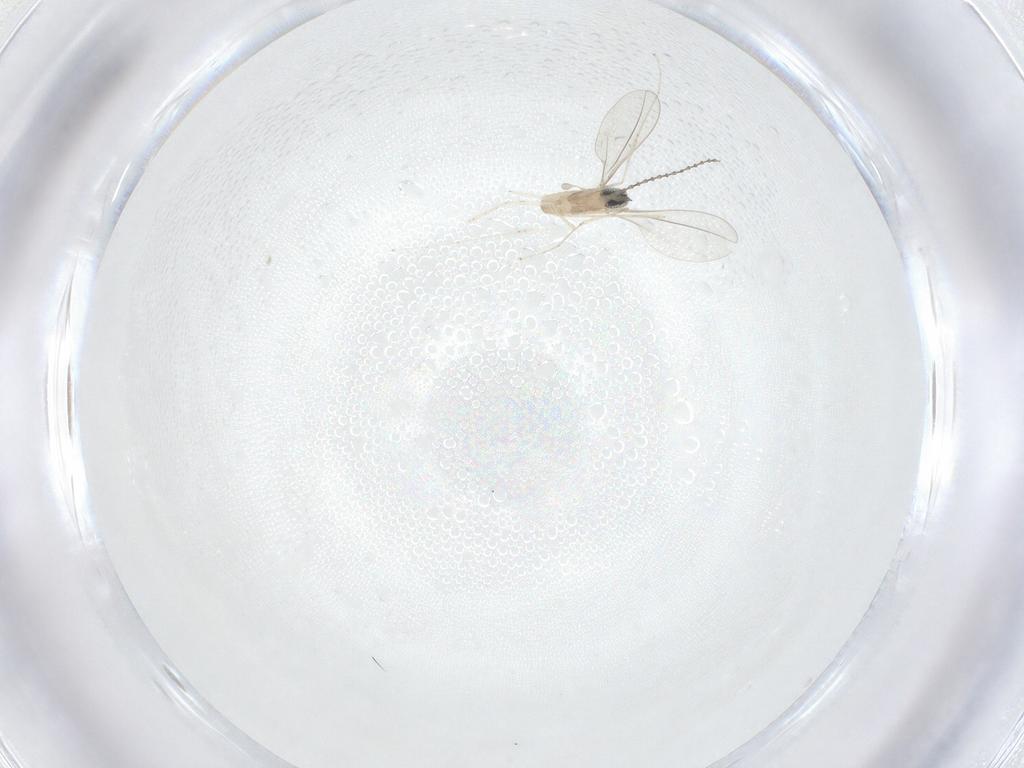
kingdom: Animalia
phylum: Arthropoda
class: Insecta
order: Diptera
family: Cecidomyiidae
